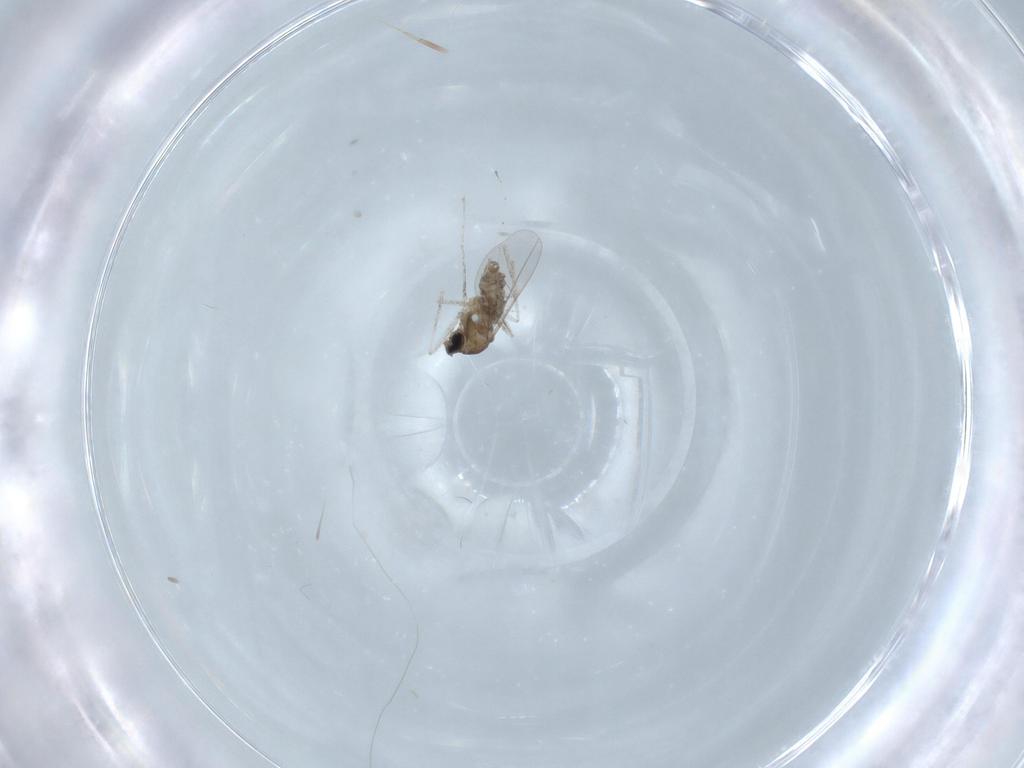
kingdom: Animalia
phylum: Arthropoda
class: Insecta
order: Diptera
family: Cecidomyiidae
